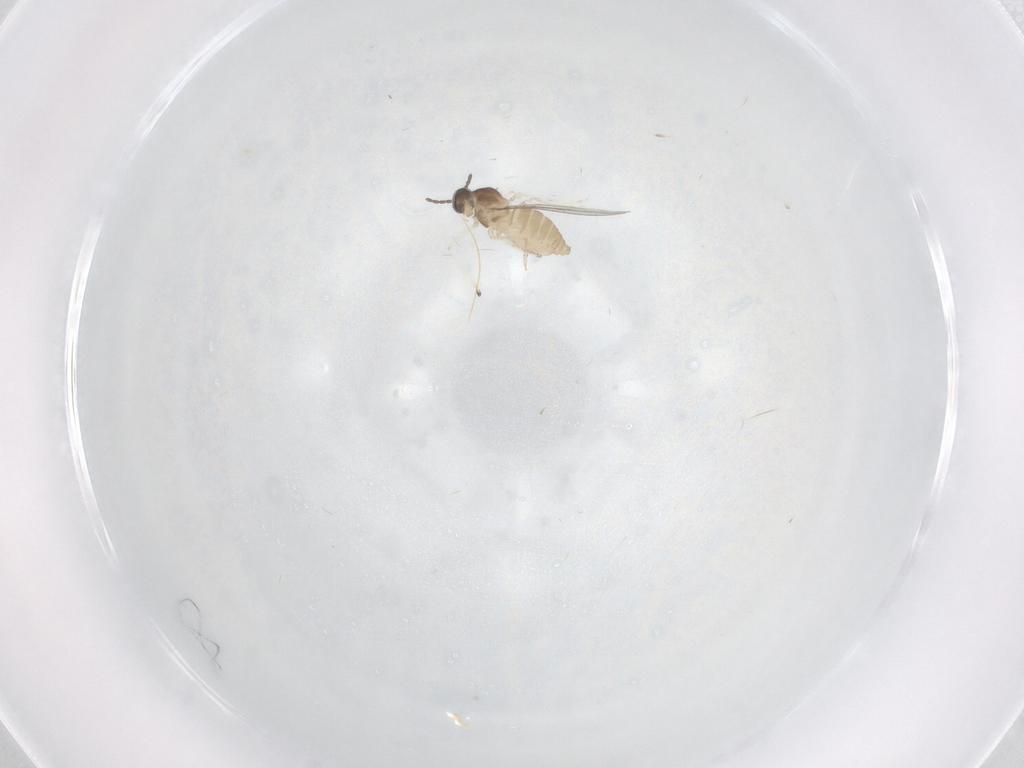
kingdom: Animalia
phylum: Arthropoda
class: Insecta
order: Diptera
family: Cecidomyiidae
